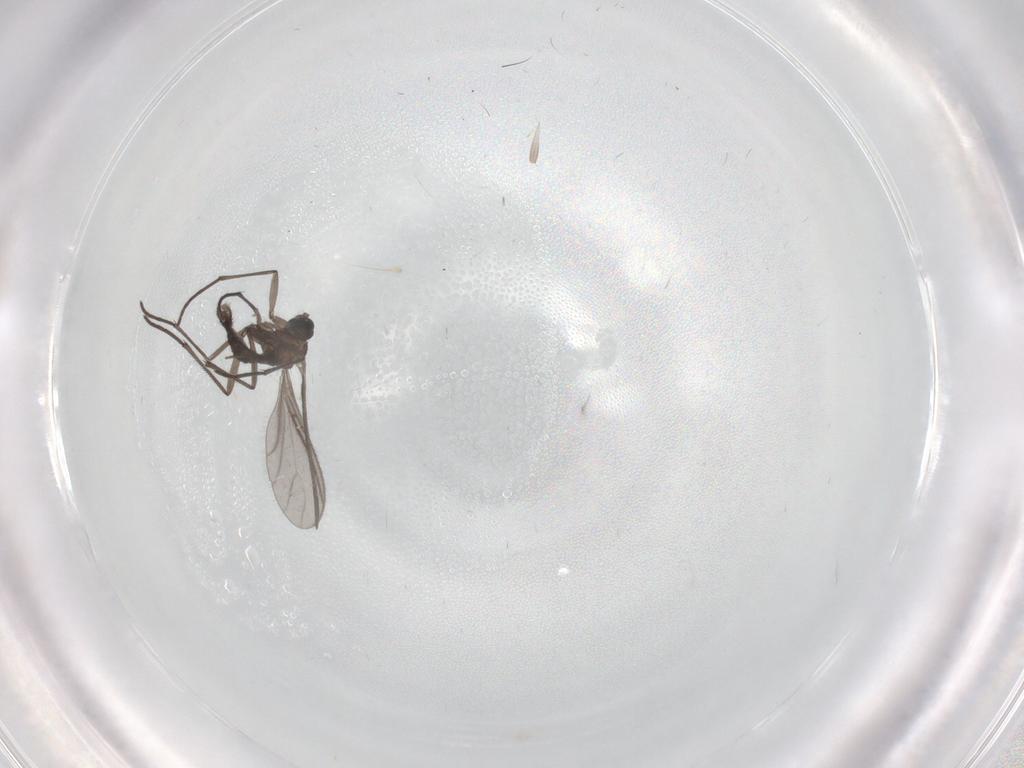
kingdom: Animalia
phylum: Arthropoda
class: Insecta
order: Diptera
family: Sciaridae
